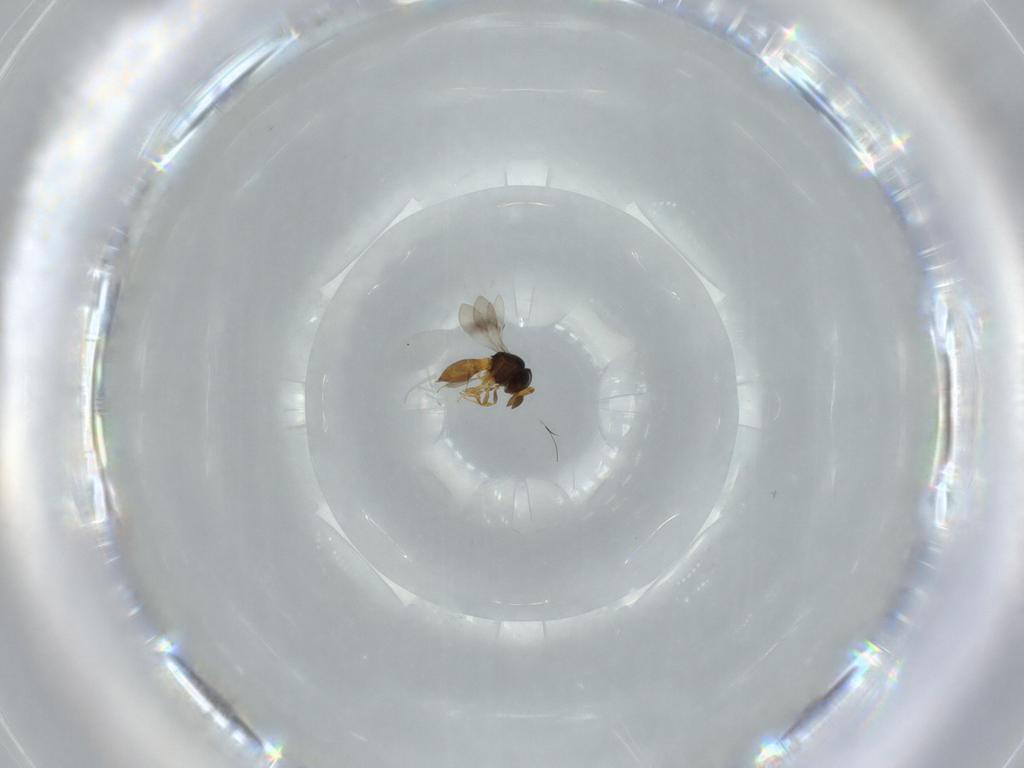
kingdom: Animalia
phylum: Arthropoda
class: Insecta
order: Hymenoptera
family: Scelionidae
